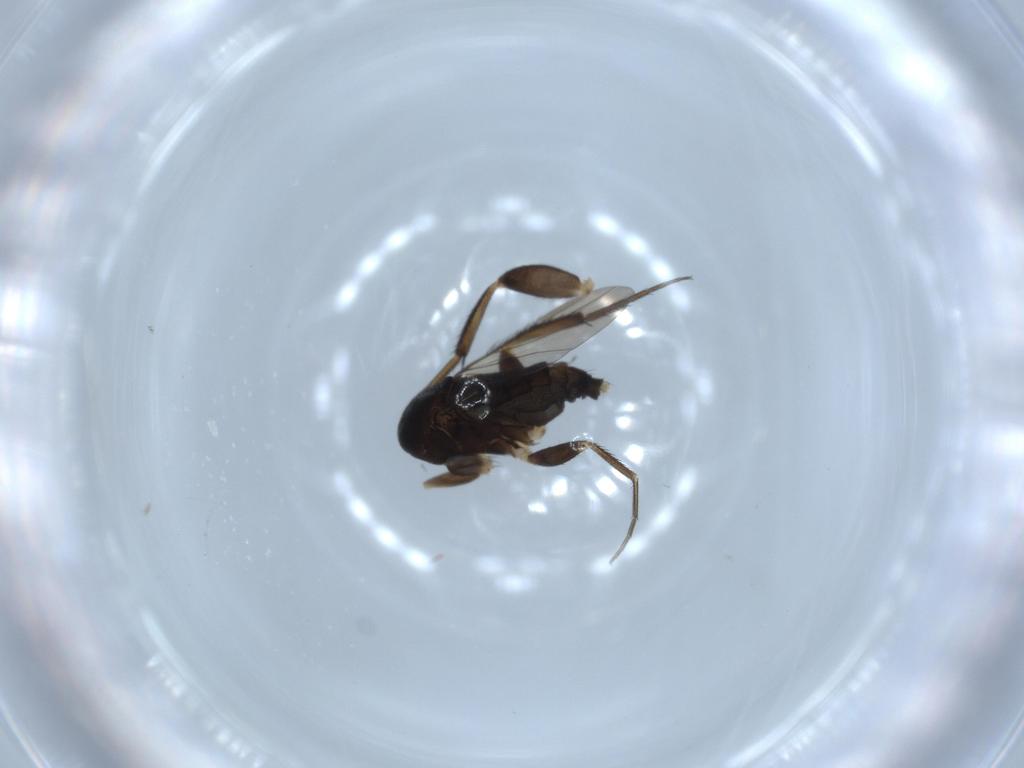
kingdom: Animalia
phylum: Arthropoda
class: Insecta
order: Diptera
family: Phoridae
